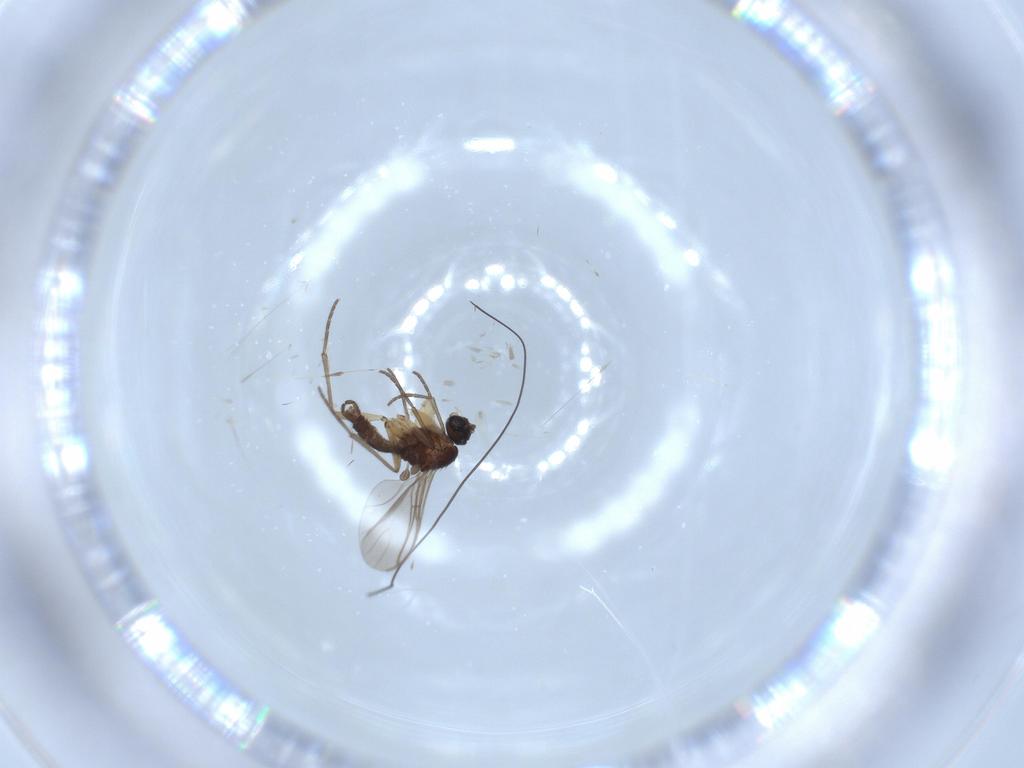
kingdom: Animalia
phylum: Arthropoda
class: Insecta
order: Diptera
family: Sciaridae
